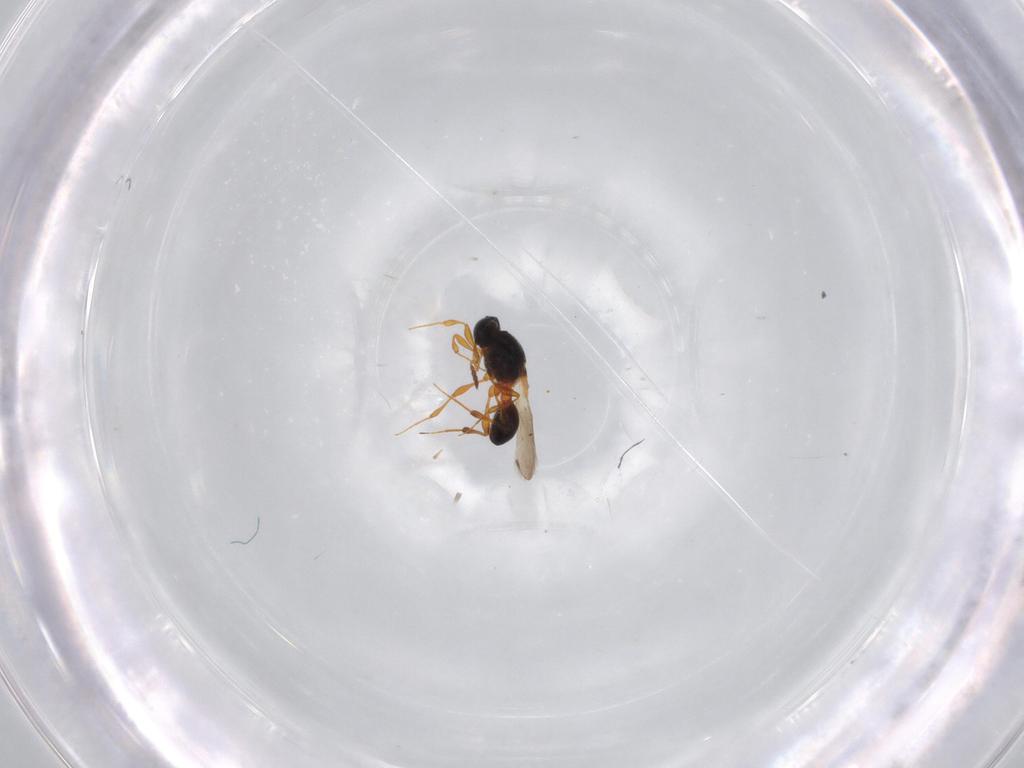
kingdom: Animalia
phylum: Arthropoda
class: Insecta
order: Hymenoptera
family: Platygastridae
